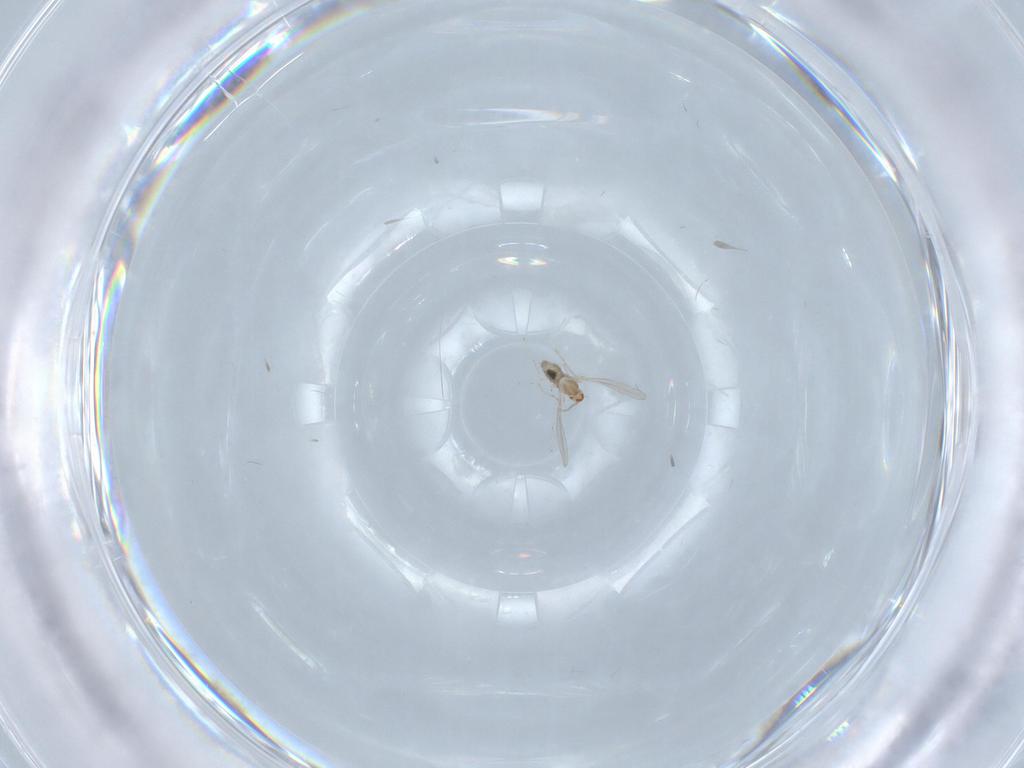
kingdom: Animalia
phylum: Arthropoda
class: Insecta
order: Diptera
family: Cecidomyiidae
